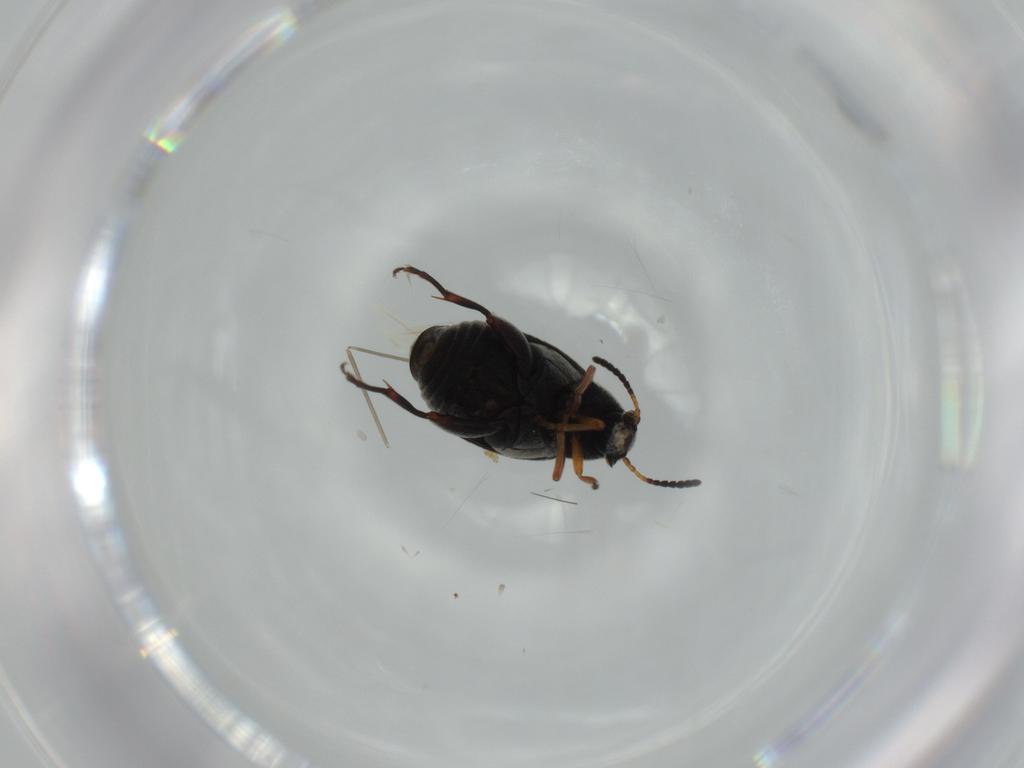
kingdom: Animalia
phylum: Arthropoda
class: Insecta
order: Coleoptera
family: Chrysomelidae
